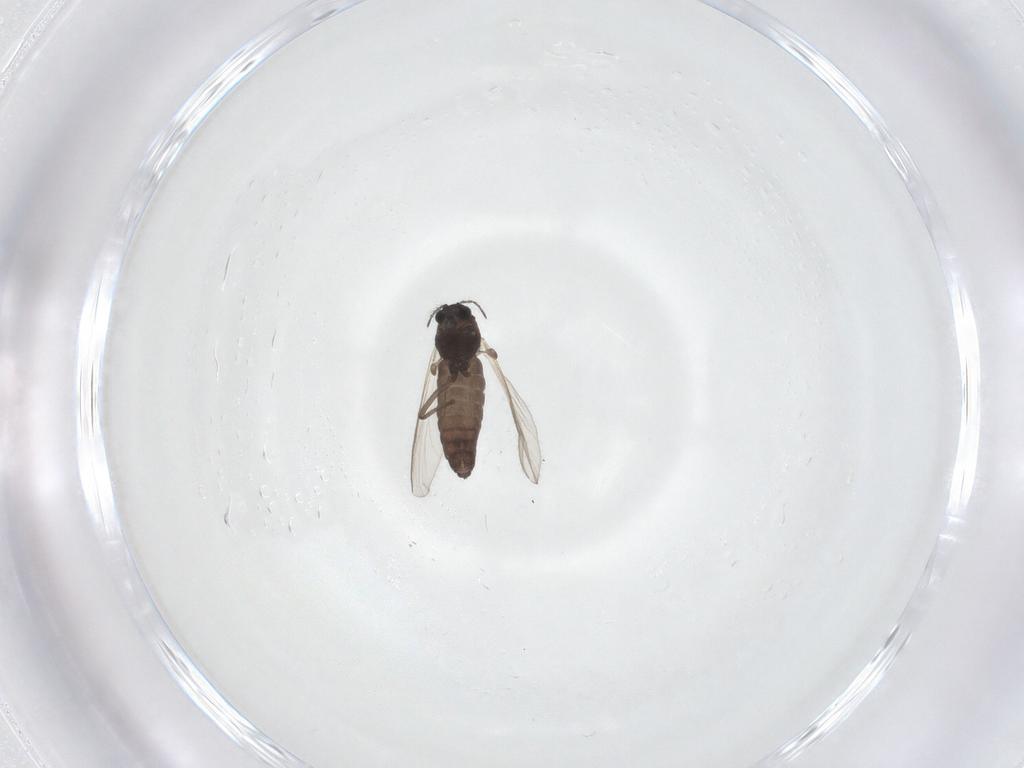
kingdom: Animalia
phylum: Arthropoda
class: Insecta
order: Diptera
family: Chironomidae
